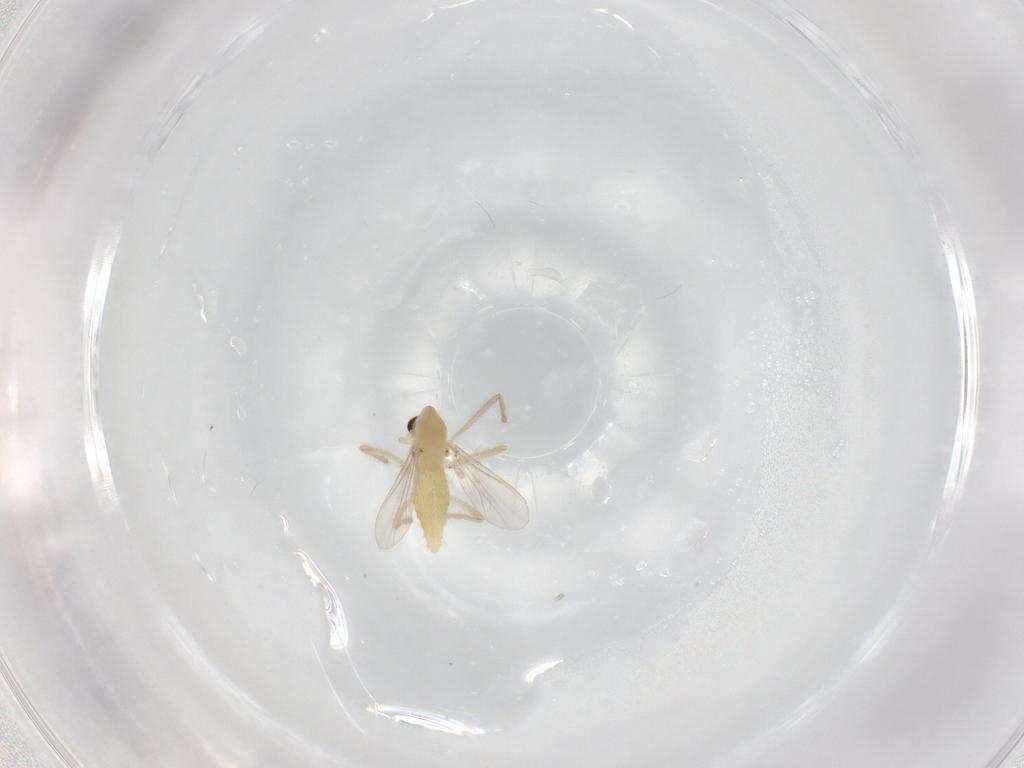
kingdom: Animalia
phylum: Arthropoda
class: Insecta
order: Diptera
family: Chironomidae
